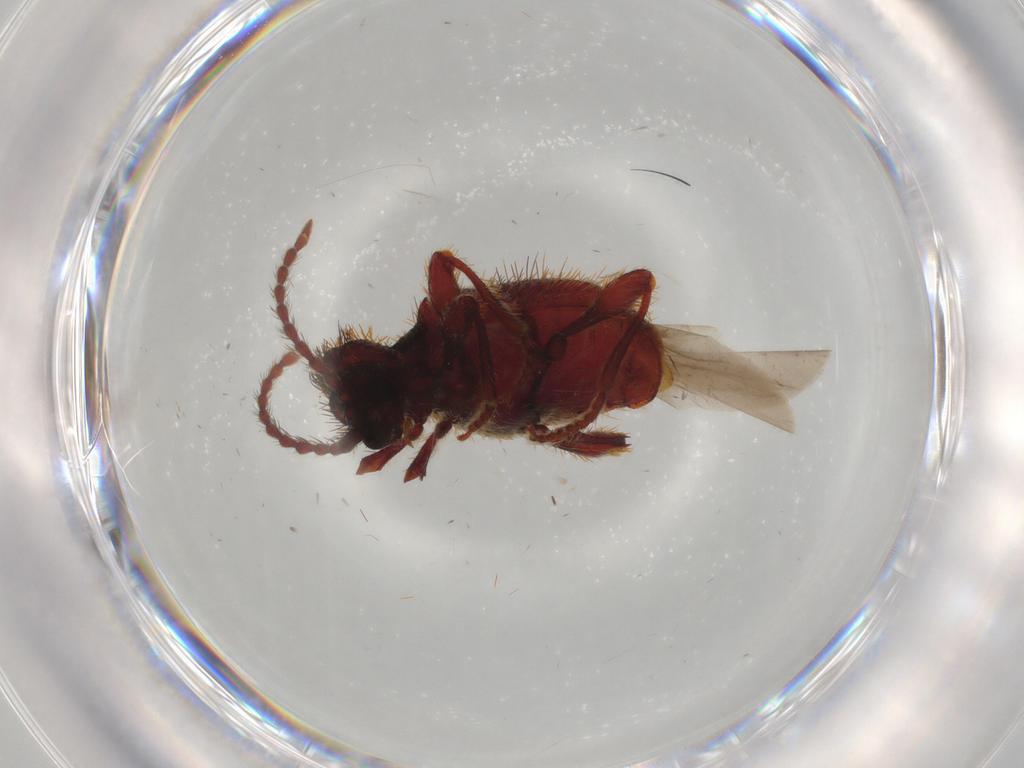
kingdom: Animalia
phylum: Arthropoda
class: Insecta
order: Coleoptera
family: Ptinidae
